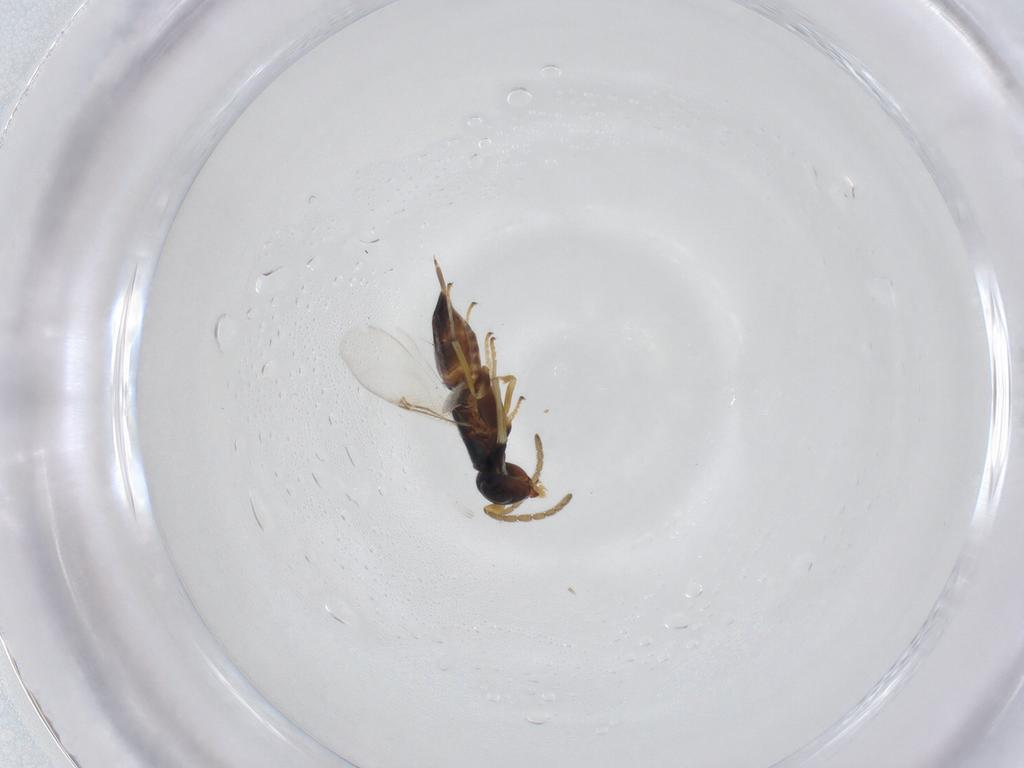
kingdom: Animalia
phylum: Arthropoda
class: Insecta
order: Hymenoptera
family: Encyrtidae
